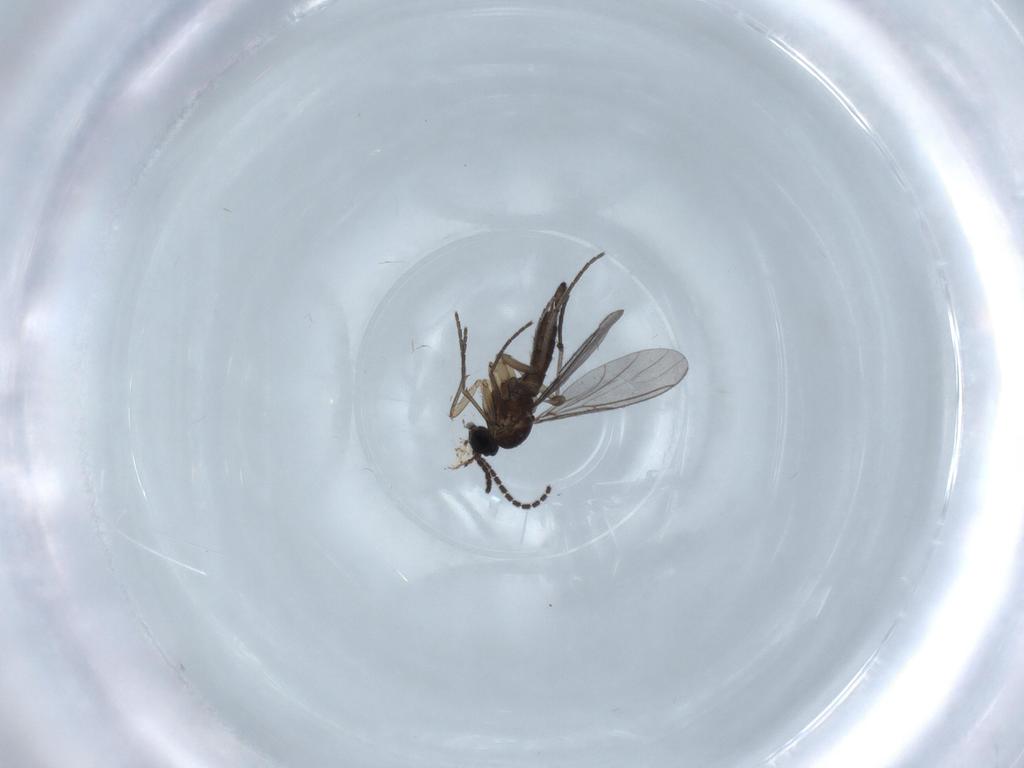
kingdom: Animalia
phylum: Arthropoda
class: Insecta
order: Diptera
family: Sciaridae
